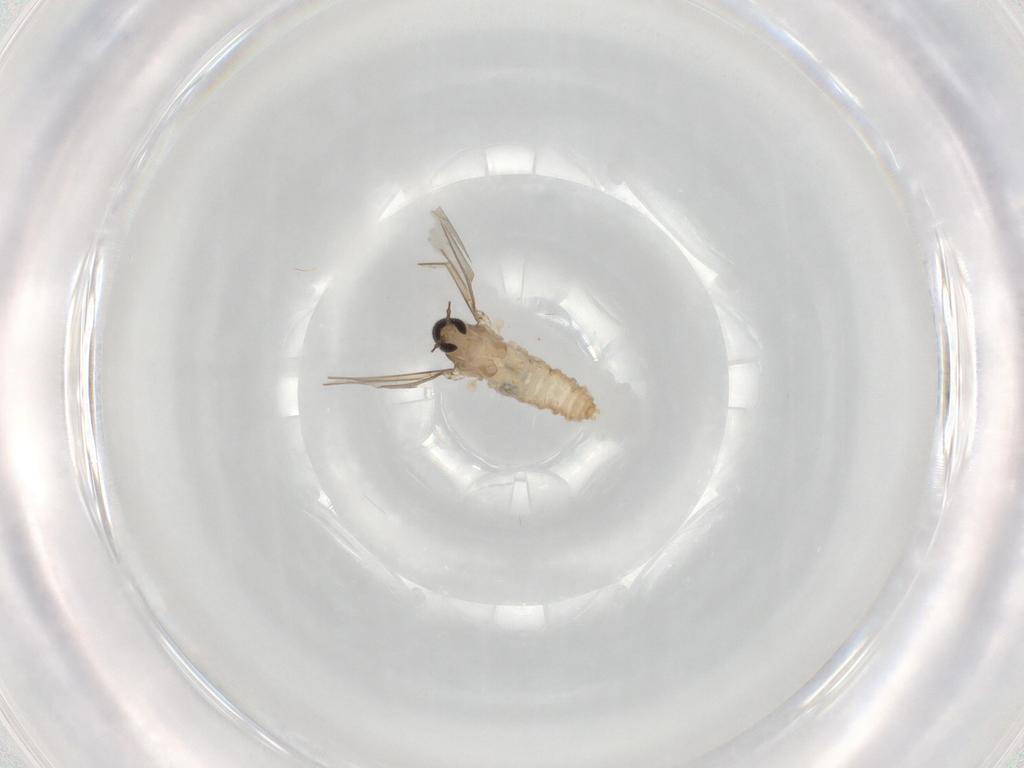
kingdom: Animalia
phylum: Arthropoda
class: Insecta
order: Diptera
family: Cecidomyiidae
